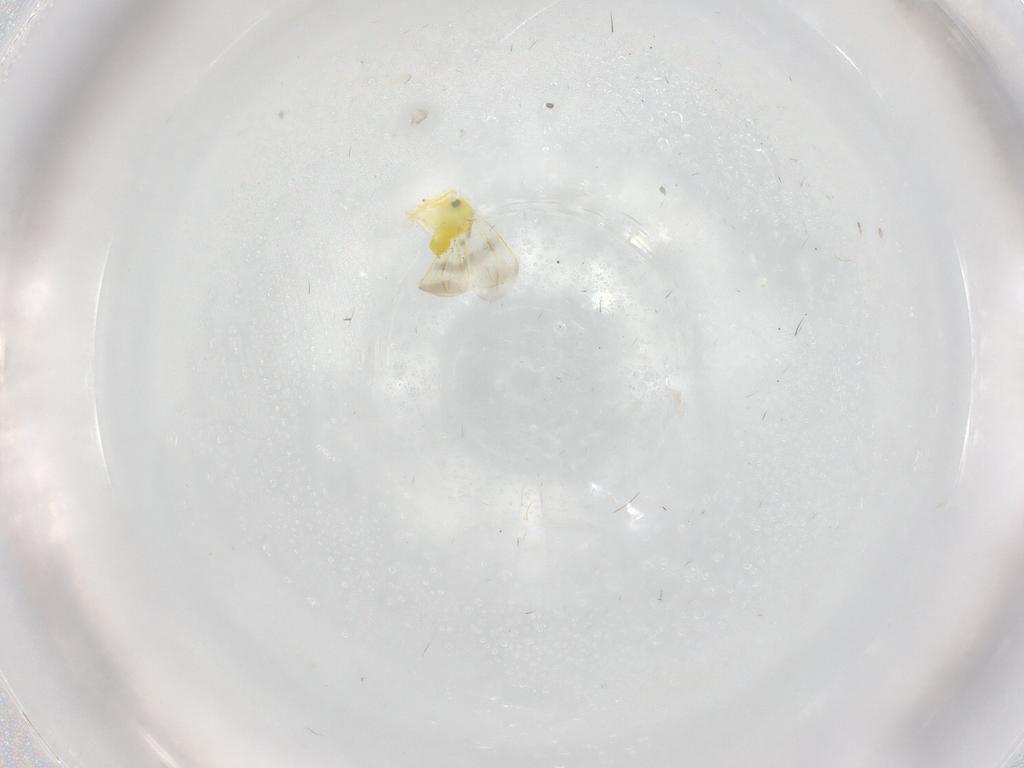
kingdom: Animalia
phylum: Arthropoda
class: Insecta
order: Hemiptera
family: Aleyrodidae
